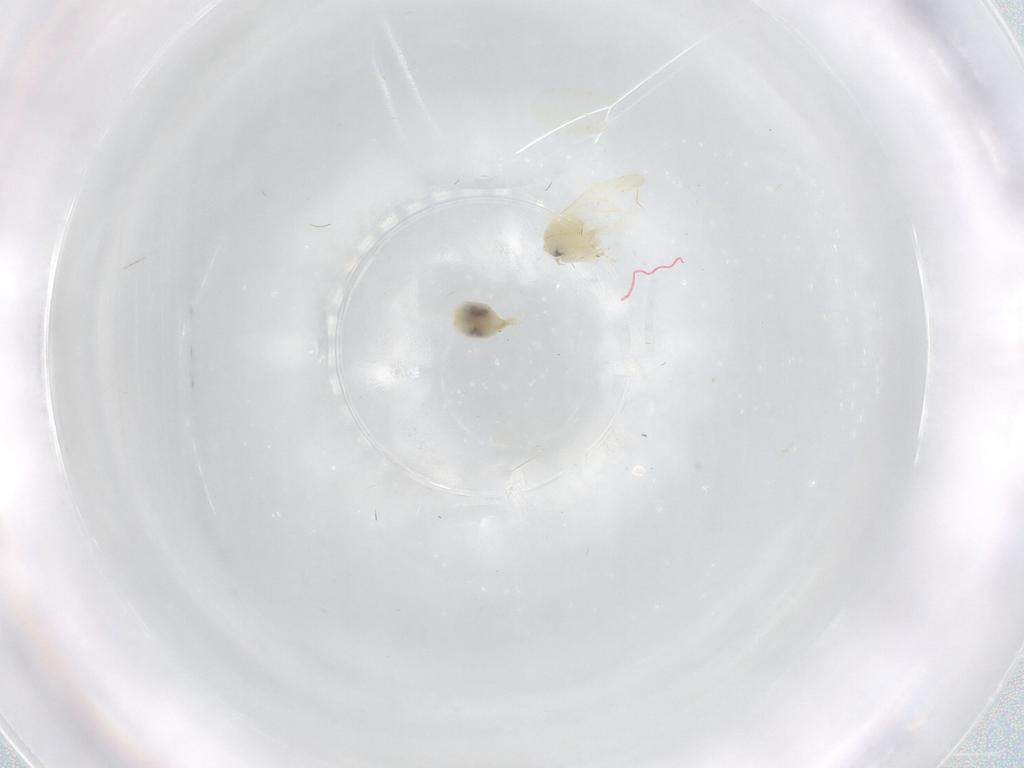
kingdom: Animalia
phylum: Arthropoda
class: Insecta
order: Hemiptera
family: Aleyrodidae
